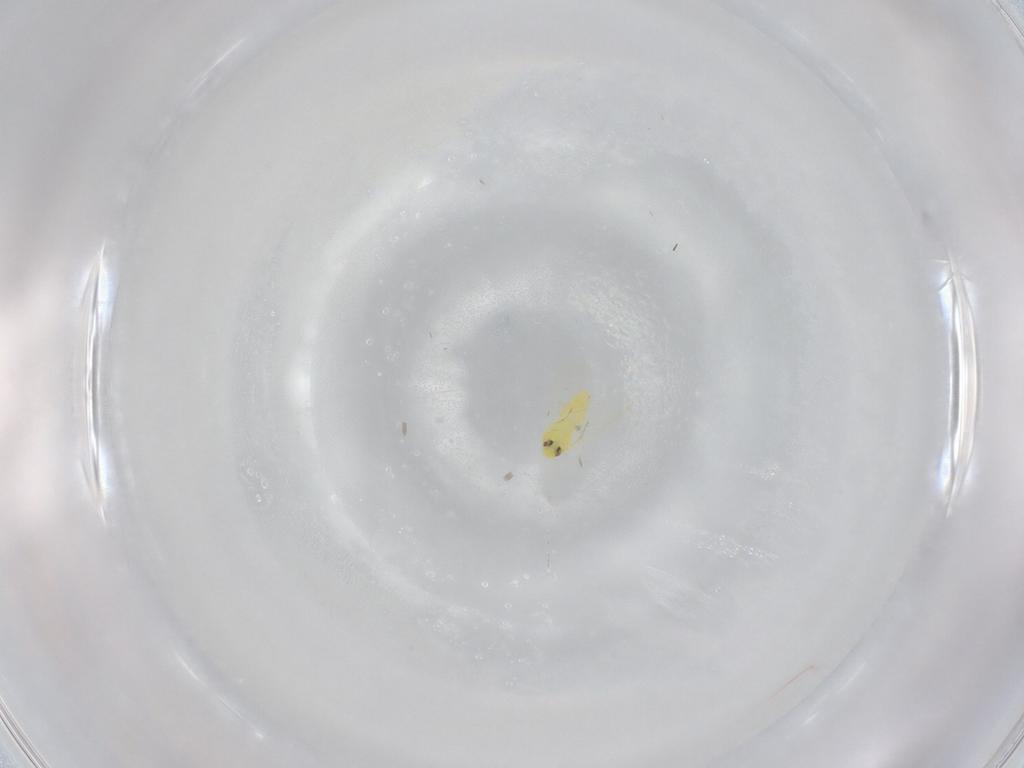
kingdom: Animalia
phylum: Arthropoda
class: Insecta
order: Hemiptera
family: Aleyrodidae
